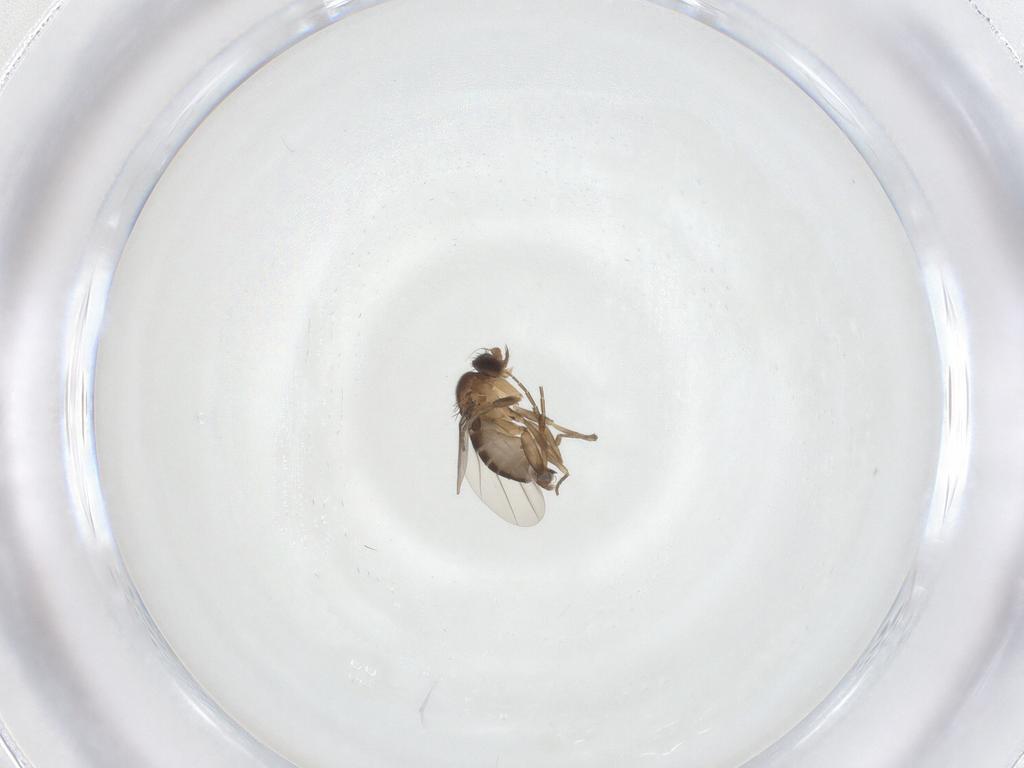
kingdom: Animalia
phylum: Arthropoda
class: Insecta
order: Diptera
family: Phoridae
